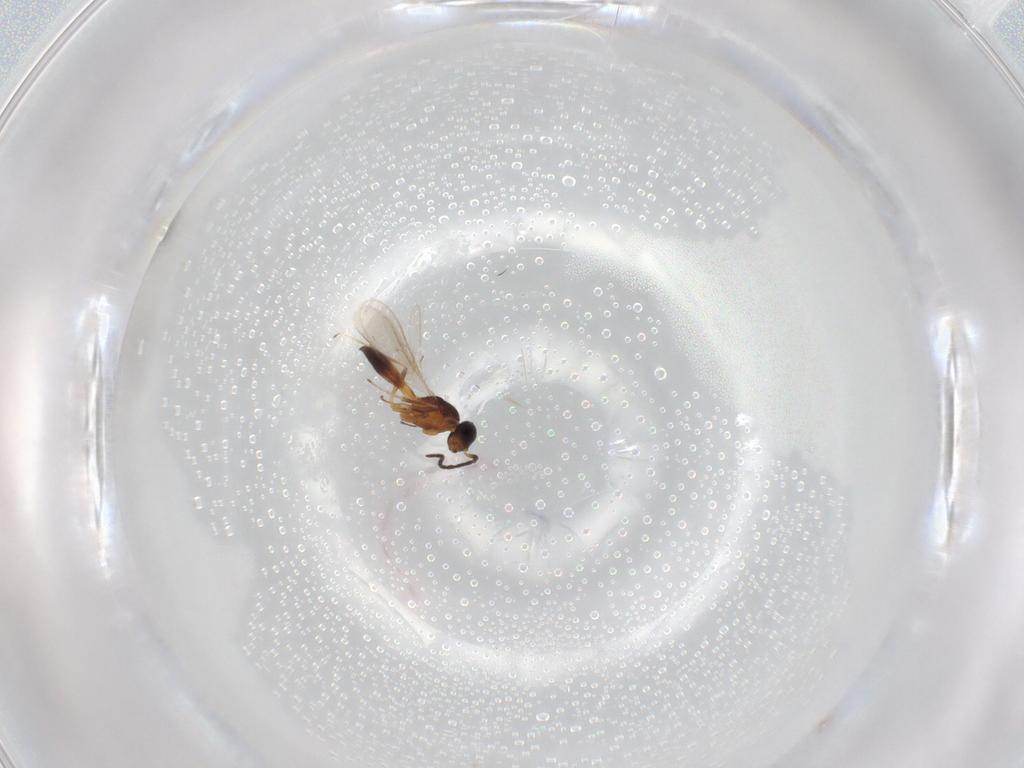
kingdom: Animalia
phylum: Arthropoda
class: Insecta
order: Hymenoptera
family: Scelionidae
